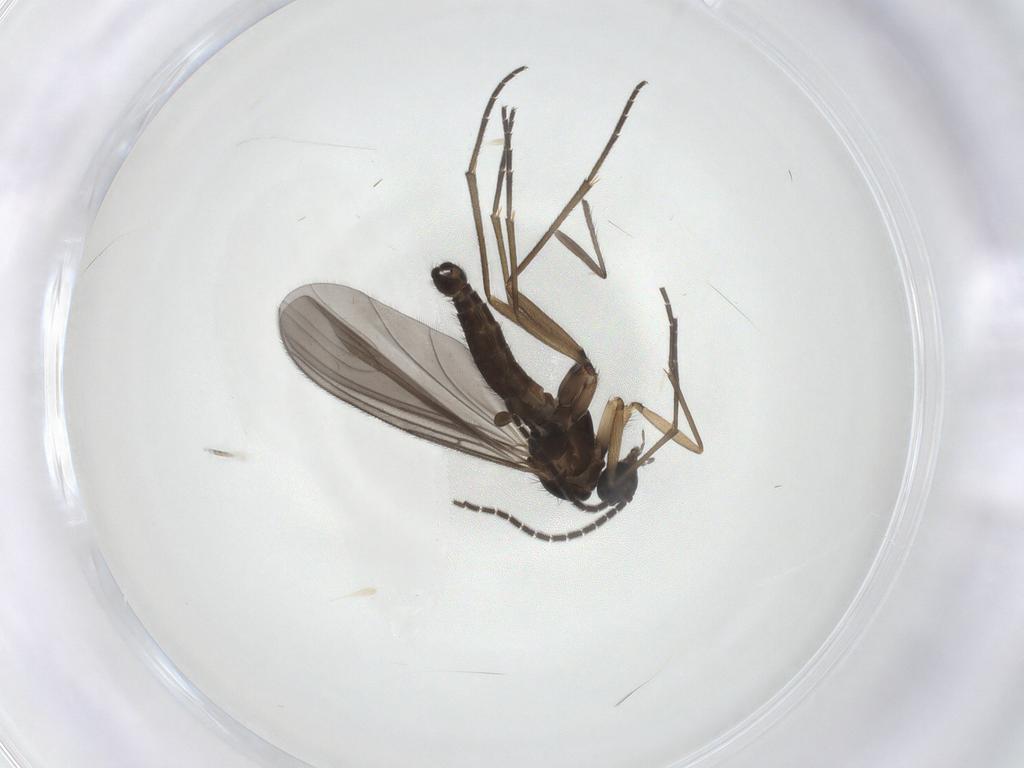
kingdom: Animalia
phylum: Arthropoda
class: Insecta
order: Diptera
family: Sciaridae
